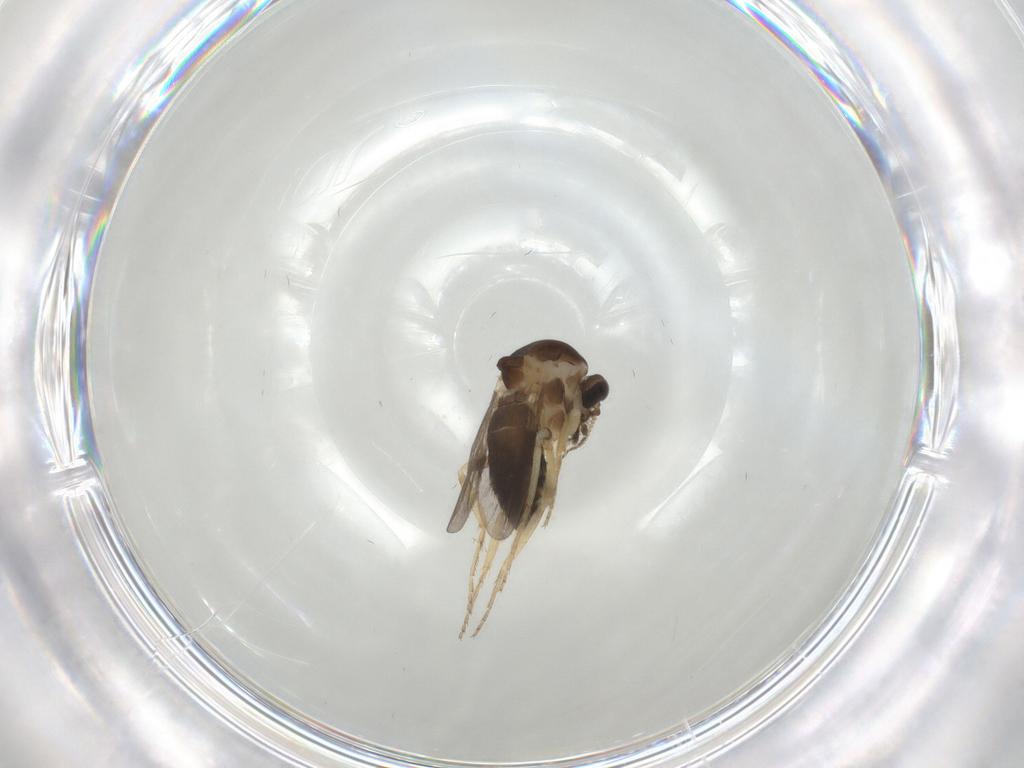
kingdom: Animalia
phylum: Arthropoda
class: Insecta
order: Diptera
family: Ceratopogonidae
